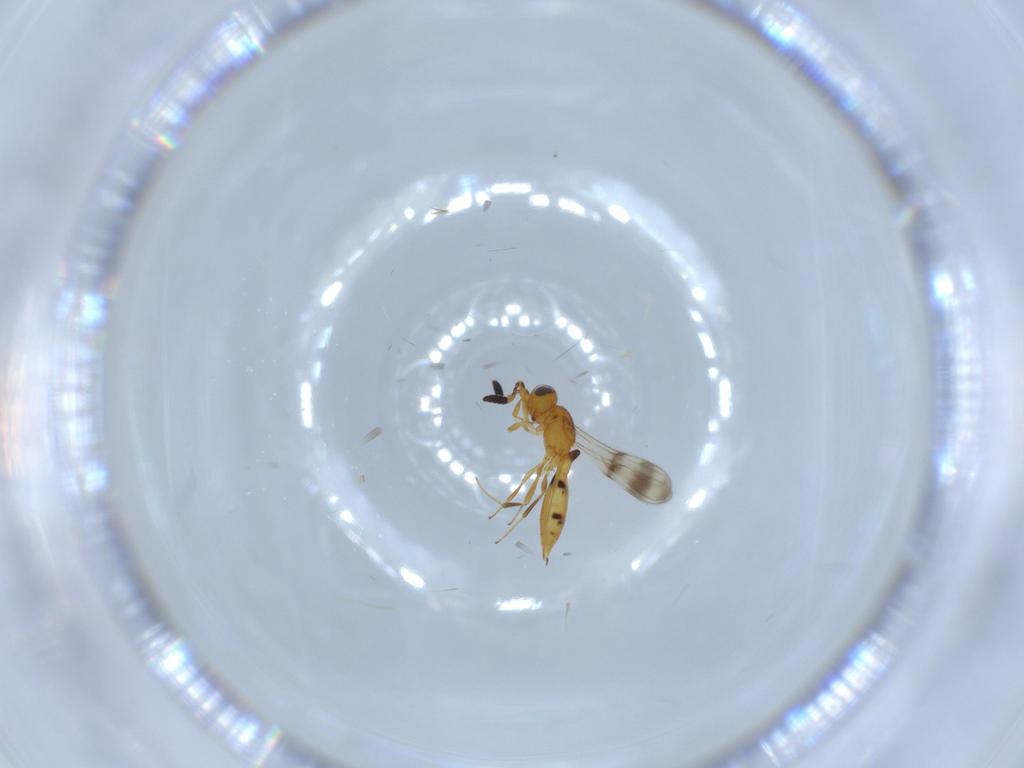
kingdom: Animalia
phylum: Arthropoda
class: Insecta
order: Hymenoptera
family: Scelionidae
